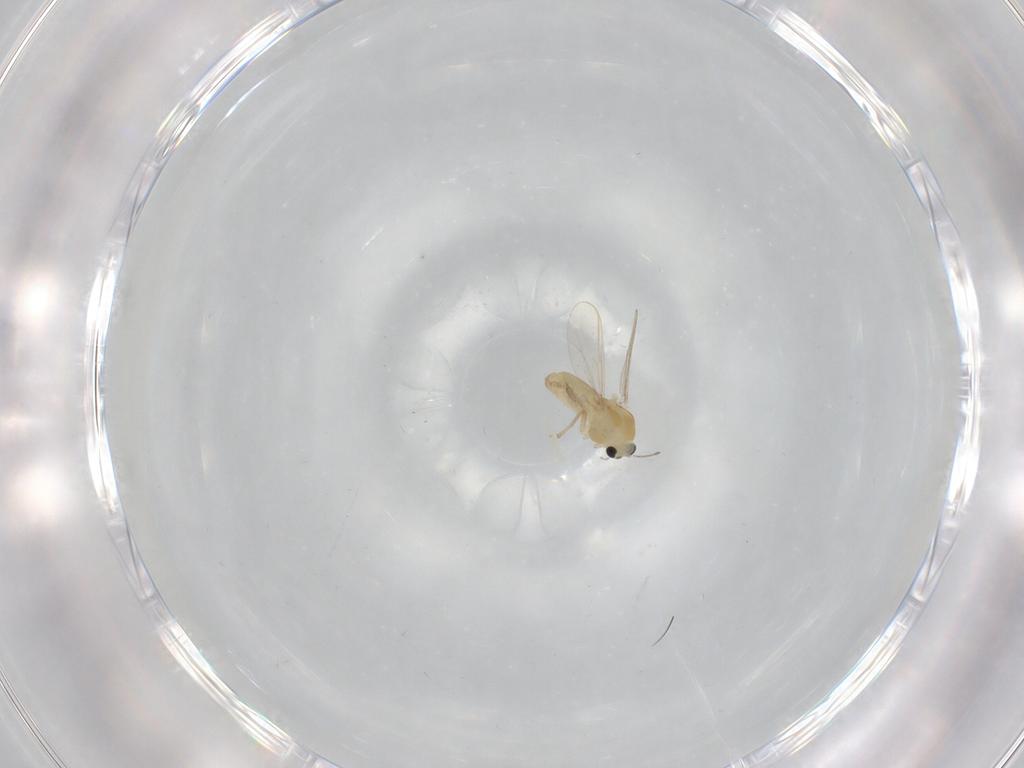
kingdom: Animalia
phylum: Arthropoda
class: Insecta
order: Diptera
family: Chironomidae
